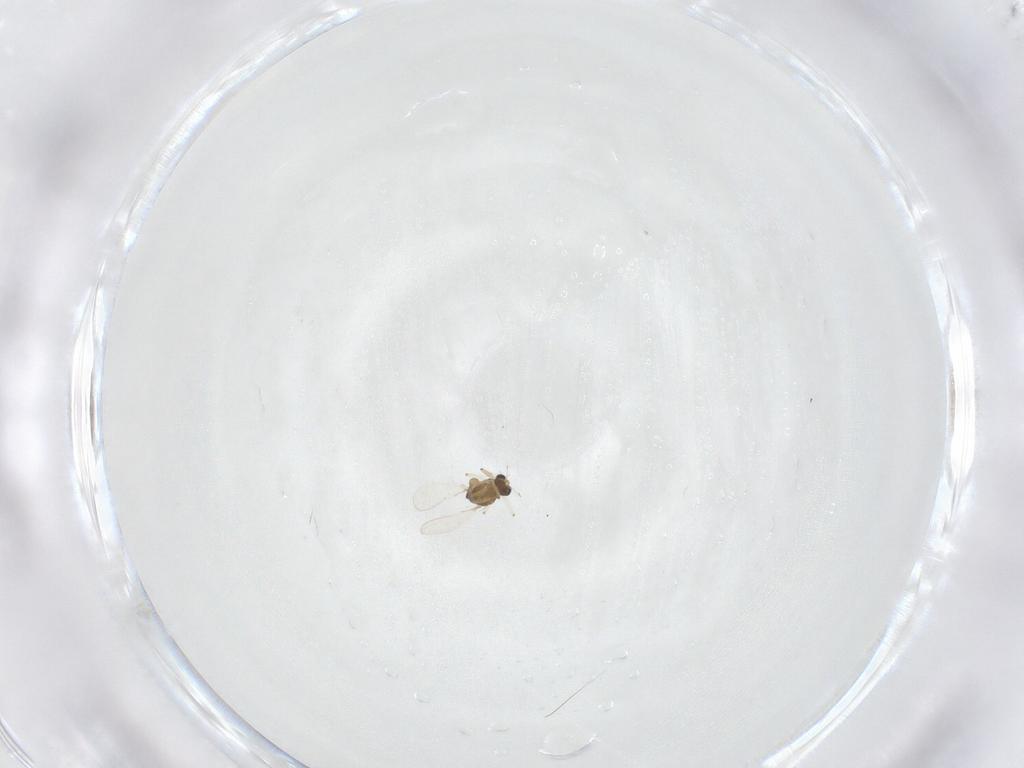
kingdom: Animalia
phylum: Arthropoda
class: Insecta
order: Diptera
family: Chironomidae
